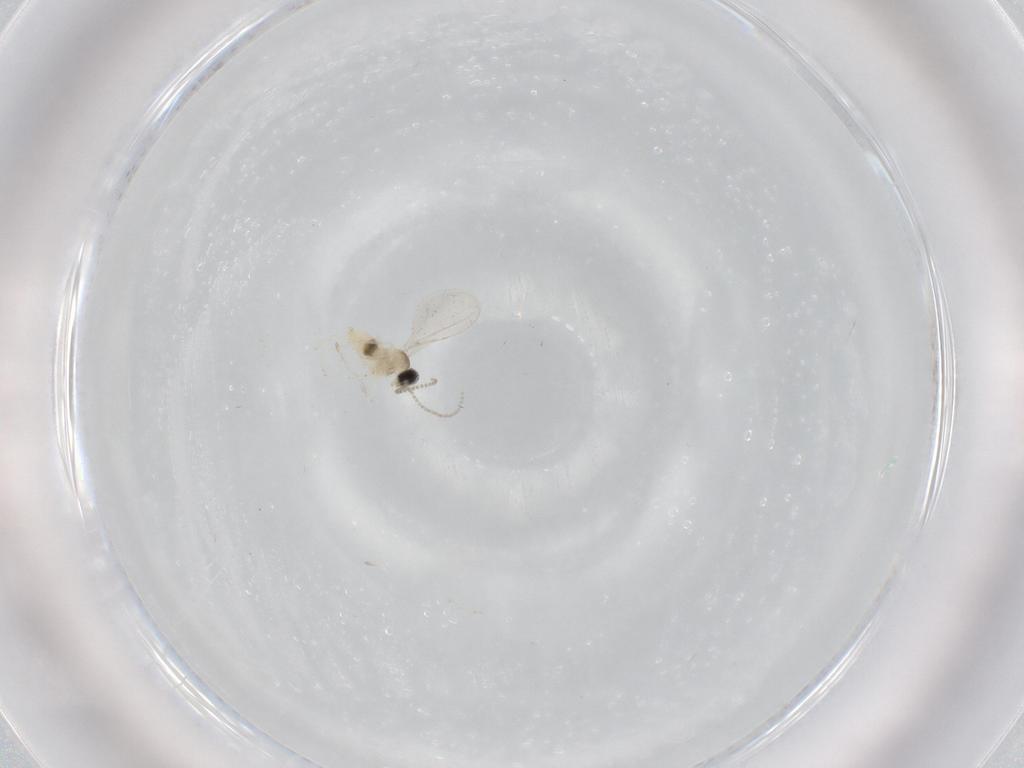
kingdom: Animalia
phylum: Arthropoda
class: Insecta
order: Diptera
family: Cecidomyiidae
